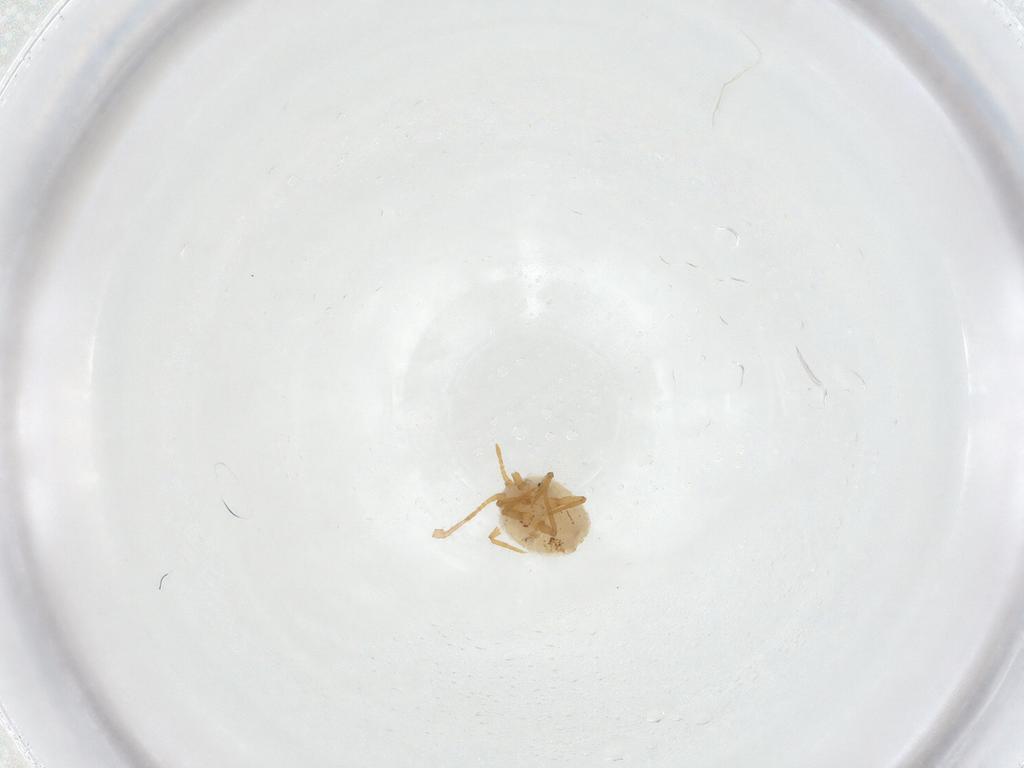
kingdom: Animalia
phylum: Arthropoda
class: Insecta
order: Hemiptera
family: Ortheziidae
